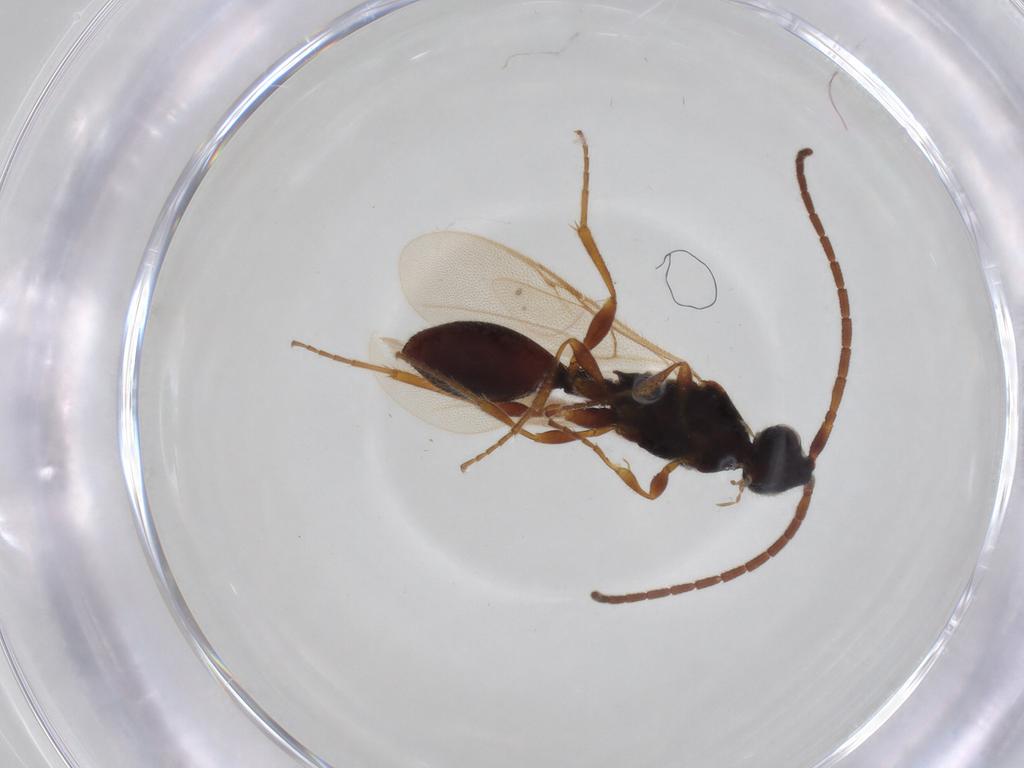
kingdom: Animalia
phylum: Arthropoda
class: Insecta
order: Hymenoptera
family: Diapriidae
